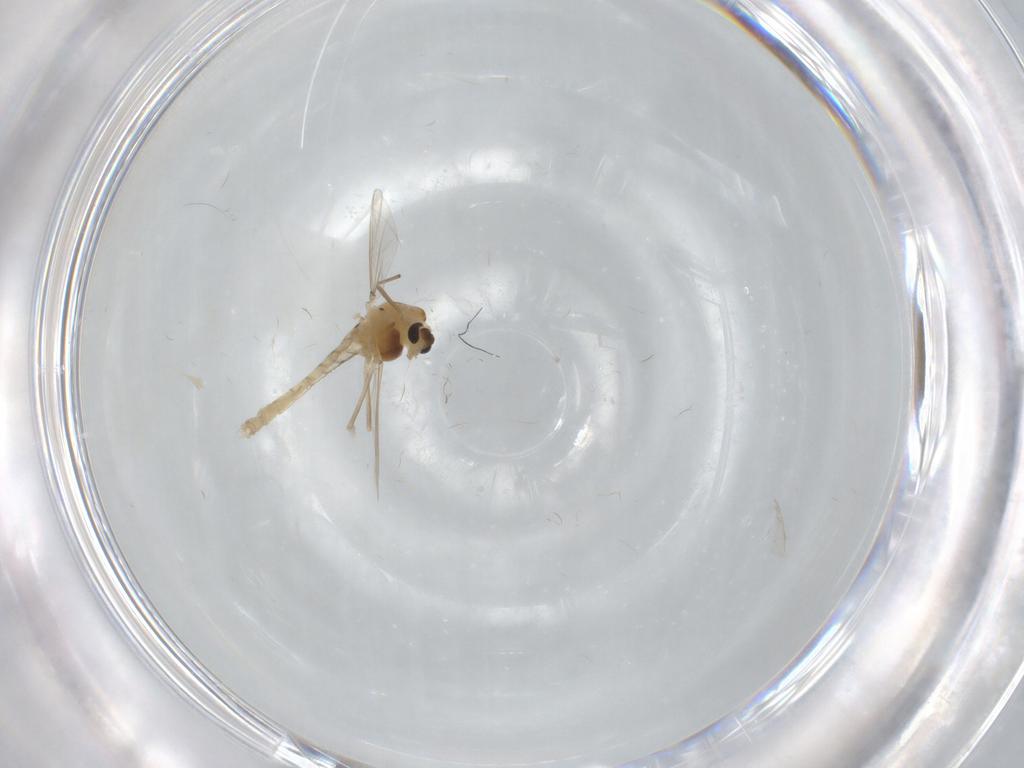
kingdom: Animalia
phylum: Arthropoda
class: Insecta
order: Diptera
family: Chironomidae
